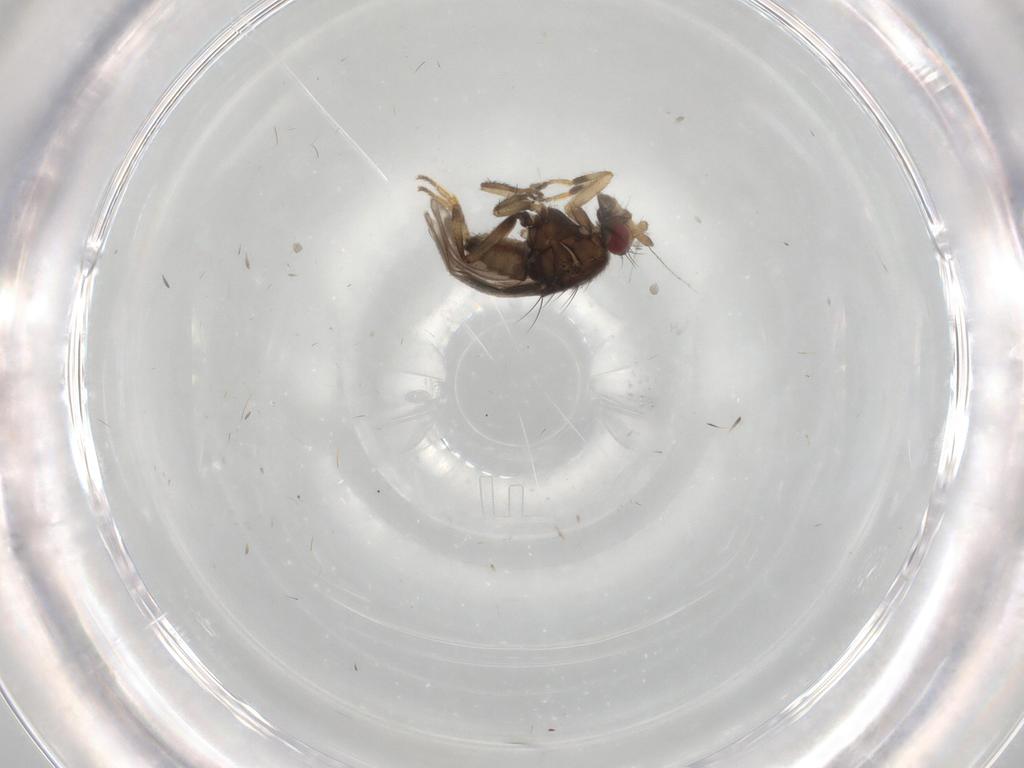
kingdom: Animalia
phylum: Arthropoda
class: Insecta
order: Diptera
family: Sphaeroceridae
